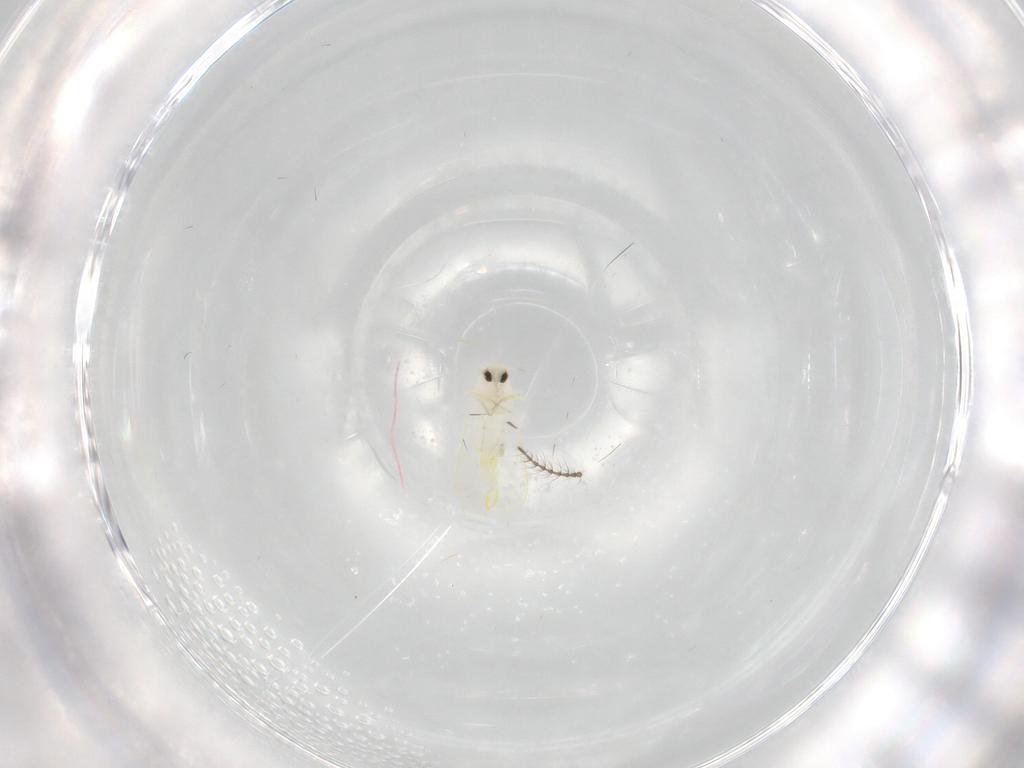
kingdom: Animalia
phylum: Arthropoda
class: Insecta
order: Hemiptera
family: Aleyrodidae
